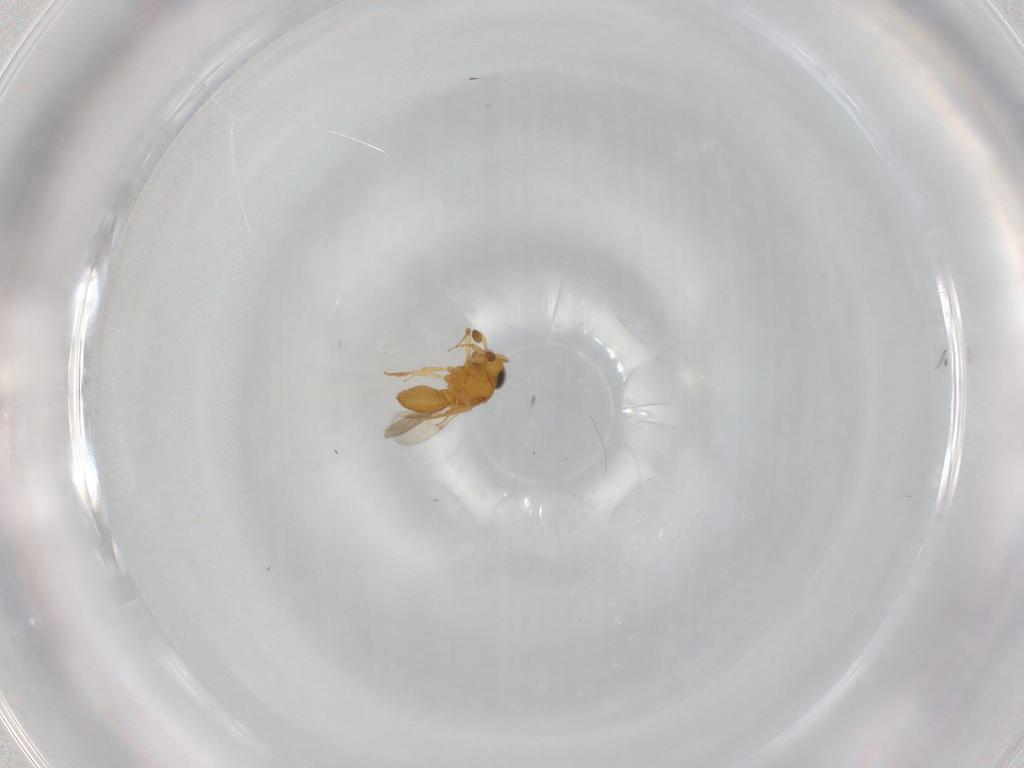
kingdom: Animalia
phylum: Arthropoda
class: Insecta
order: Hymenoptera
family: Scelionidae
